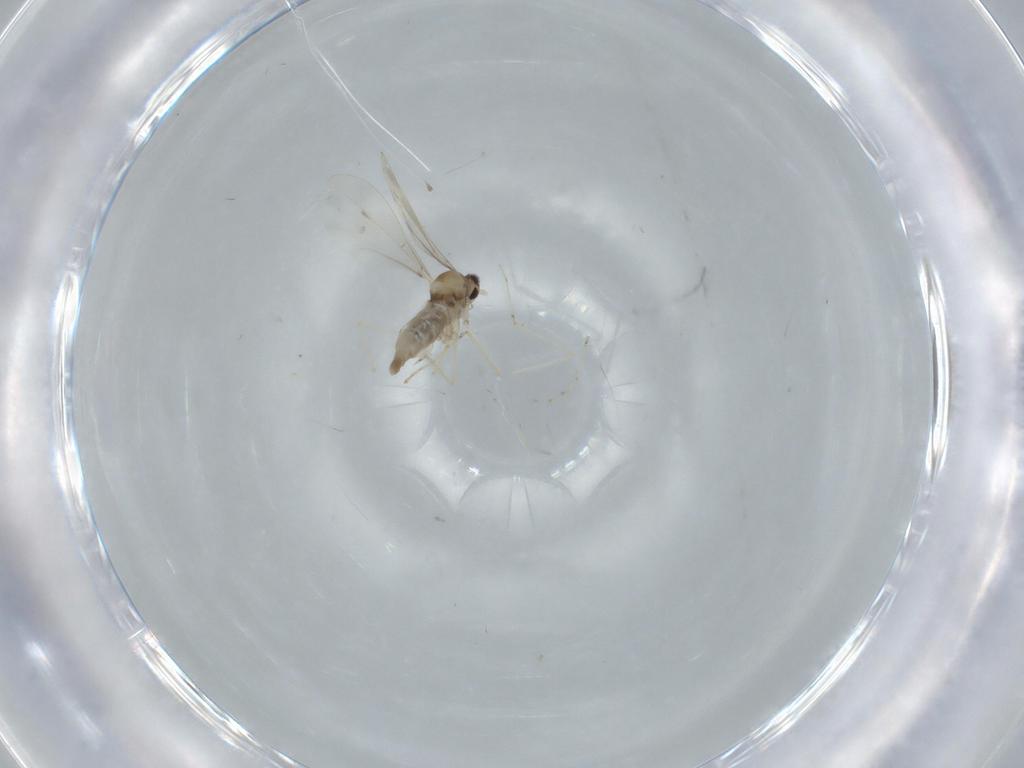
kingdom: Animalia
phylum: Arthropoda
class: Insecta
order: Diptera
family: Cecidomyiidae
